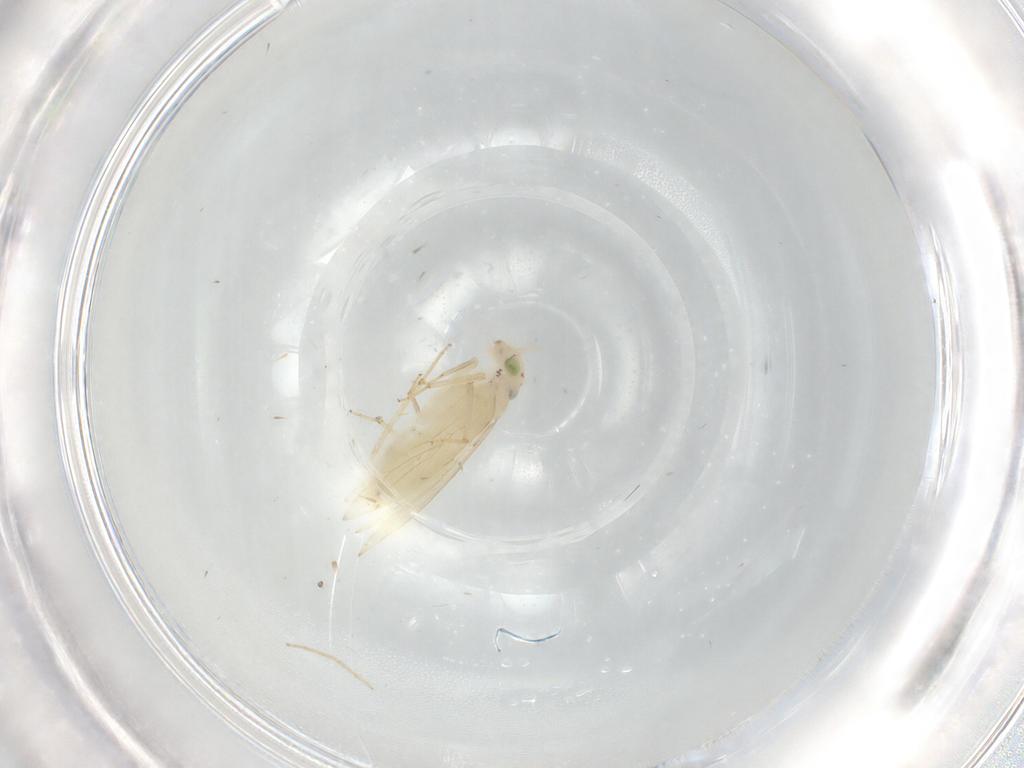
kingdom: Animalia
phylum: Arthropoda
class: Insecta
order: Psocodea
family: Lepidopsocidae
